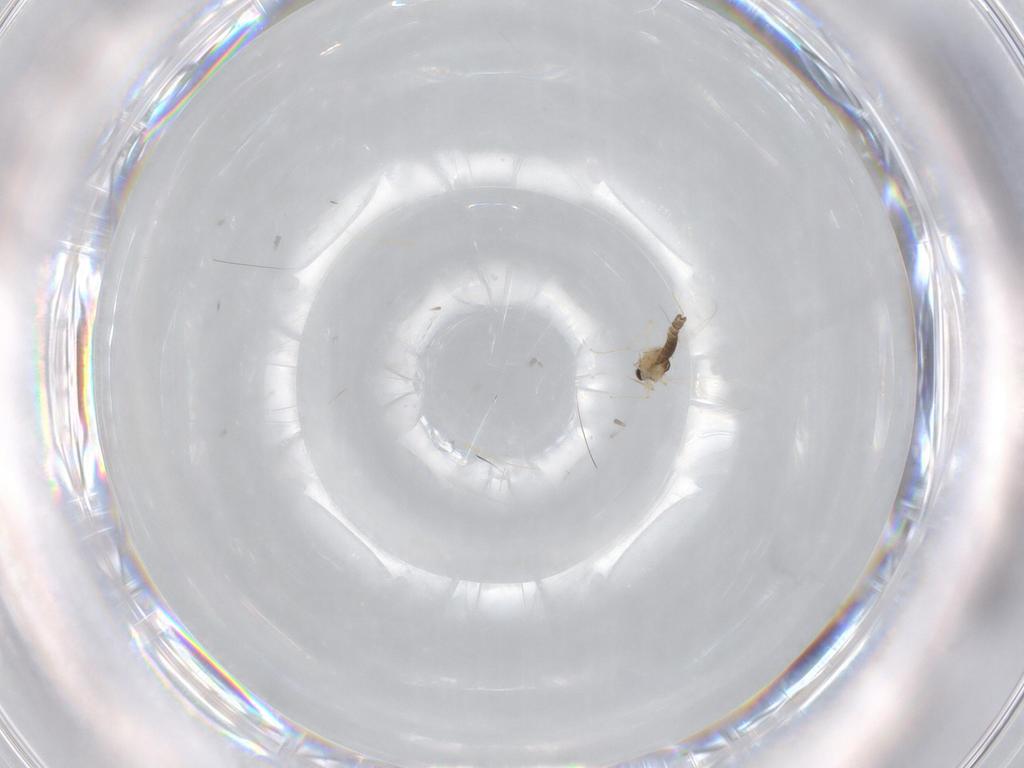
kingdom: Animalia
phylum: Arthropoda
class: Insecta
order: Diptera
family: Chironomidae
